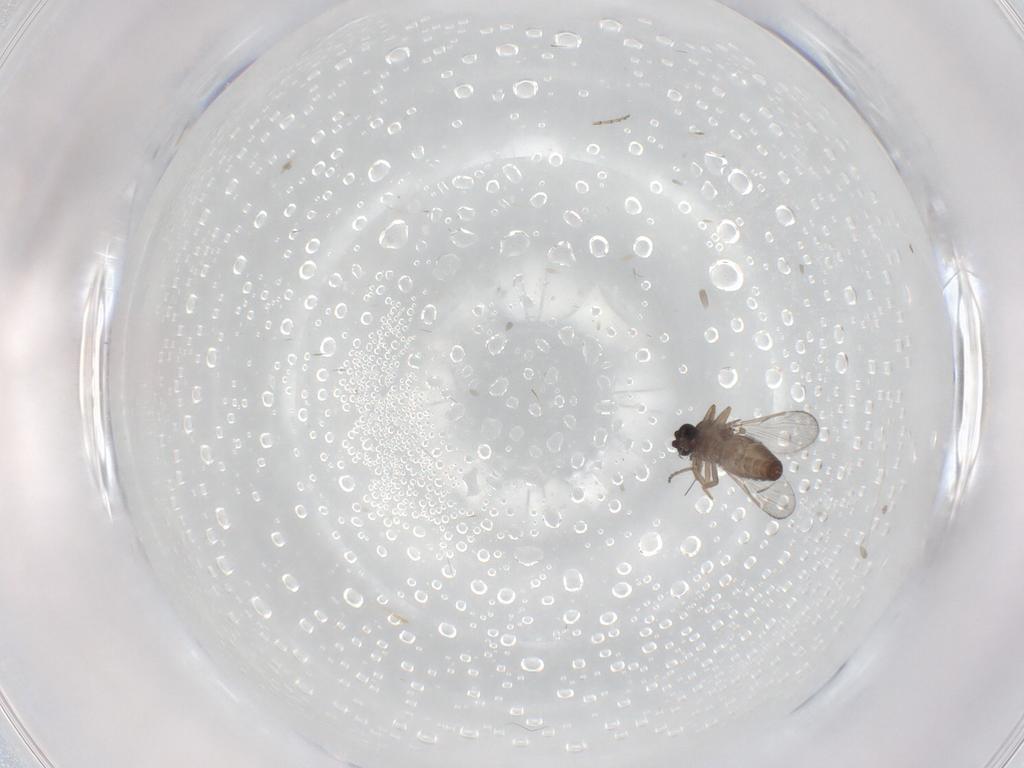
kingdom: Animalia
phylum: Arthropoda
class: Insecta
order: Diptera
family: Ceratopogonidae
